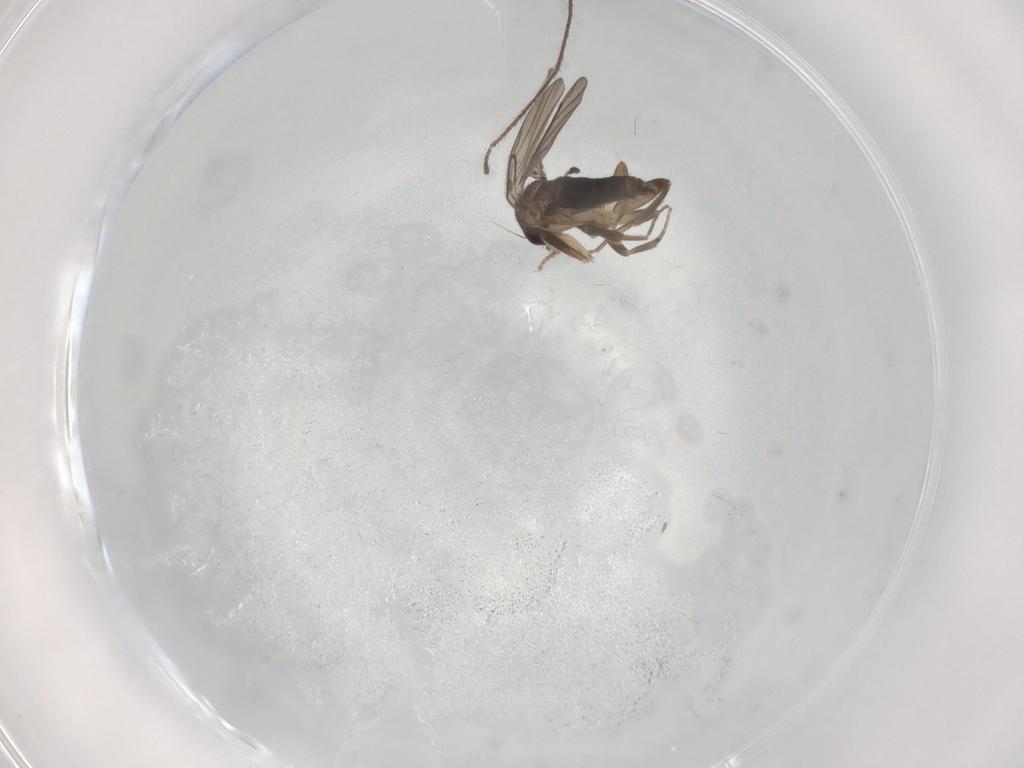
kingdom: Animalia
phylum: Arthropoda
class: Insecta
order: Diptera
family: Cecidomyiidae
